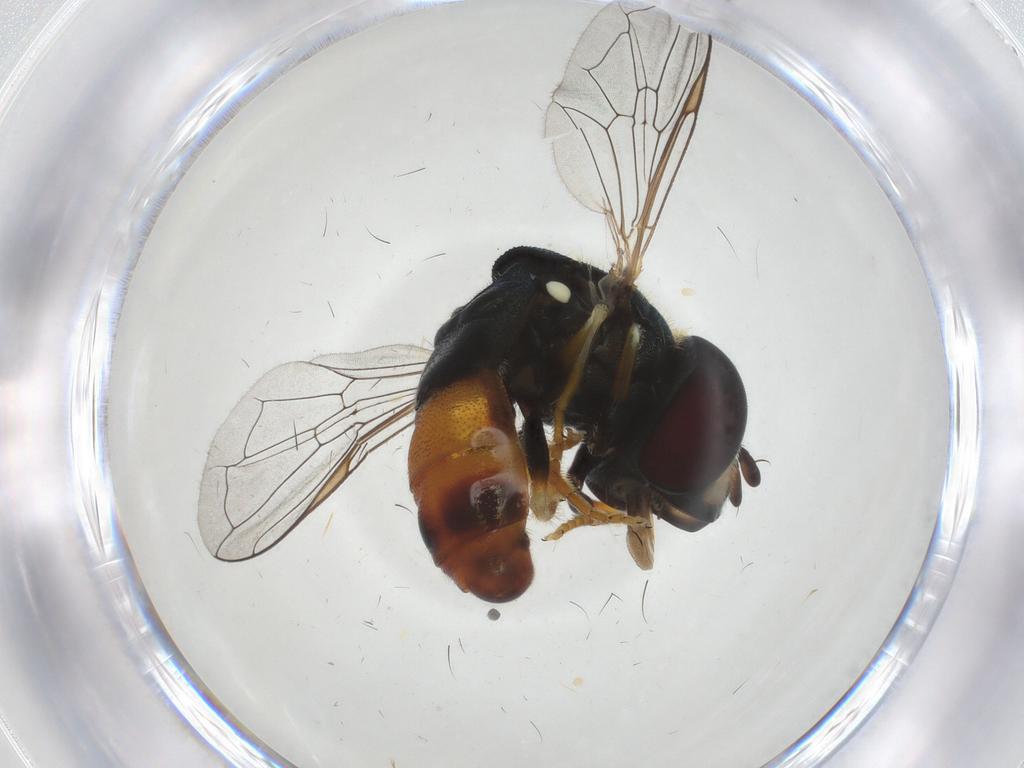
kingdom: Animalia
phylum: Arthropoda
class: Insecta
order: Diptera
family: Syrphidae
